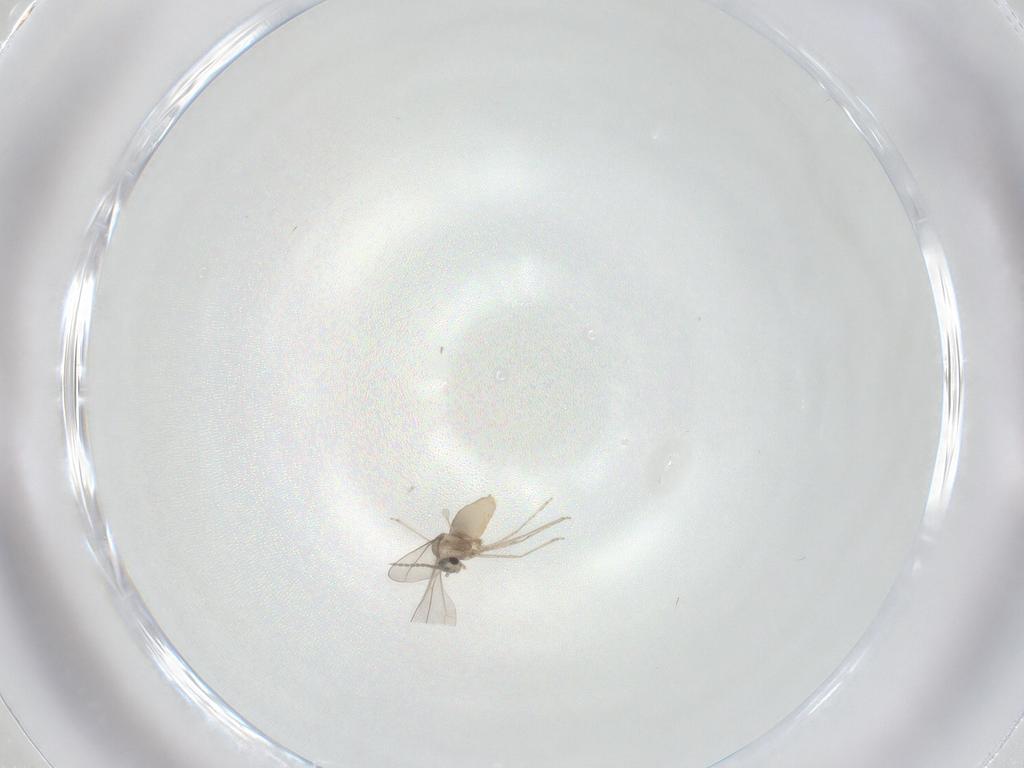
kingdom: Animalia
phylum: Arthropoda
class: Insecta
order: Diptera
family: Cecidomyiidae
